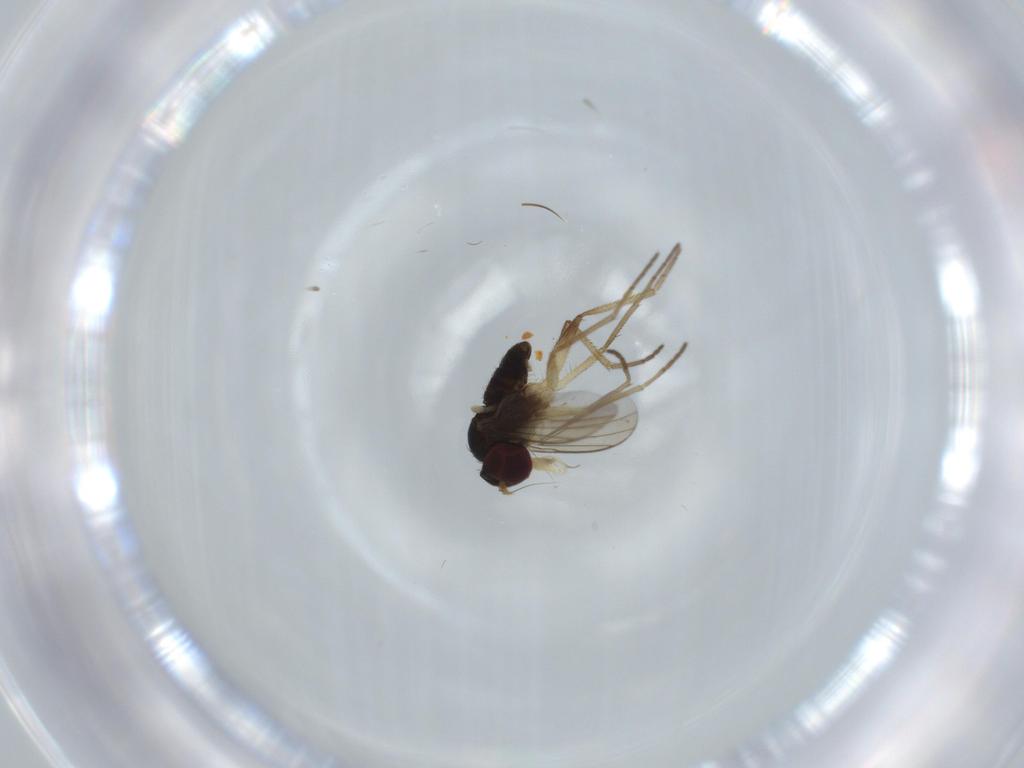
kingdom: Animalia
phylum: Arthropoda
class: Insecta
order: Diptera
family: Dolichopodidae
